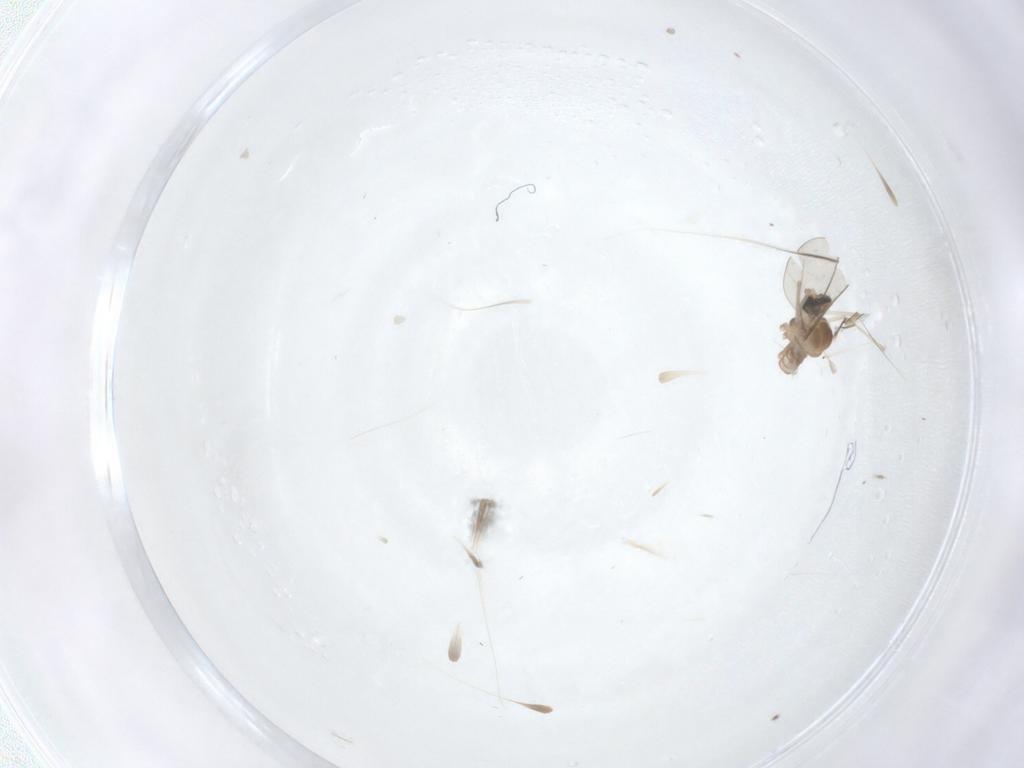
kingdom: Animalia
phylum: Arthropoda
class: Insecta
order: Diptera
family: Cecidomyiidae
